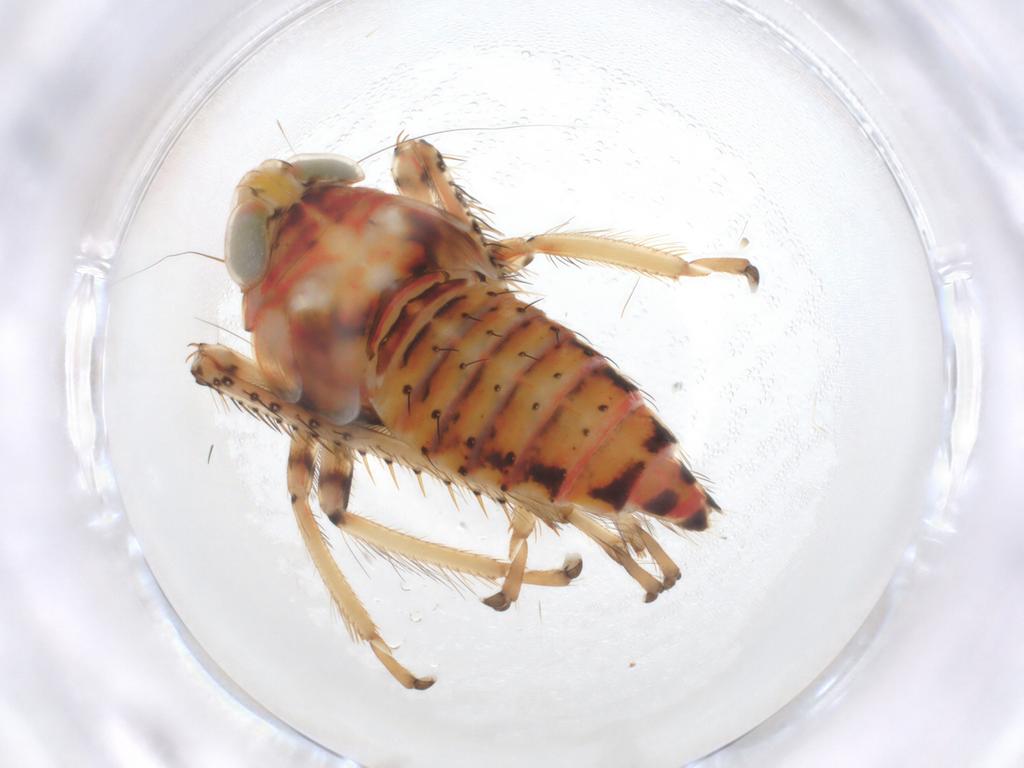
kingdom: Animalia
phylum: Arthropoda
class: Insecta
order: Hemiptera
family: Cicadellidae
